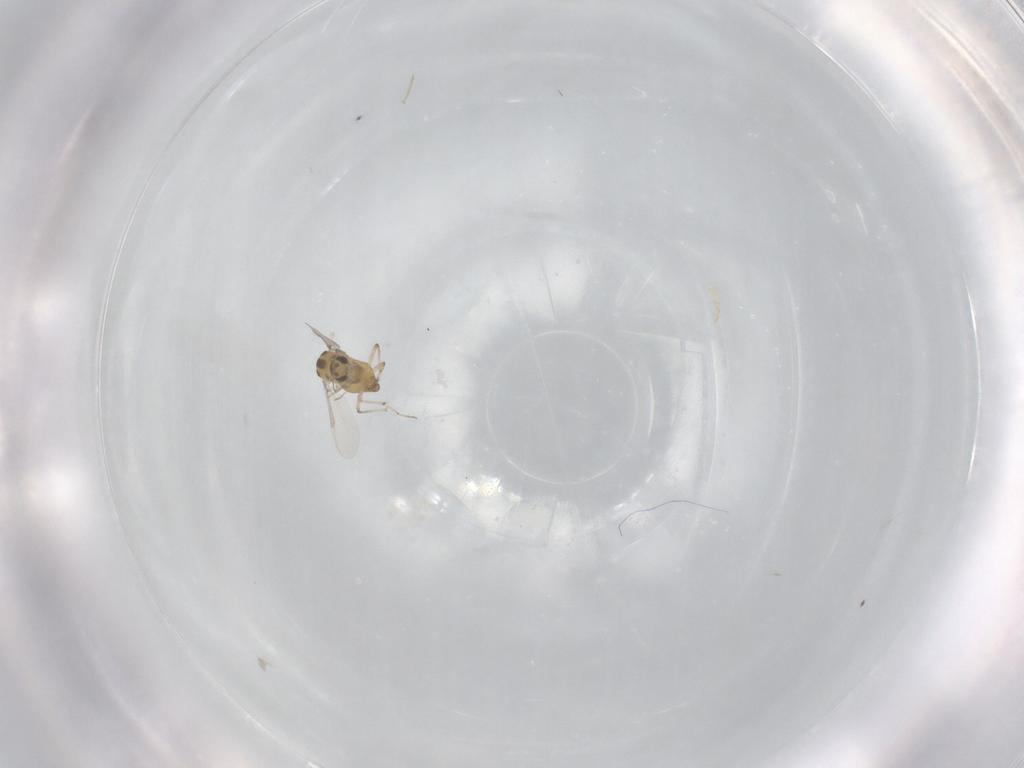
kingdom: Animalia
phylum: Arthropoda
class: Insecta
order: Diptera
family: Chironomidae
